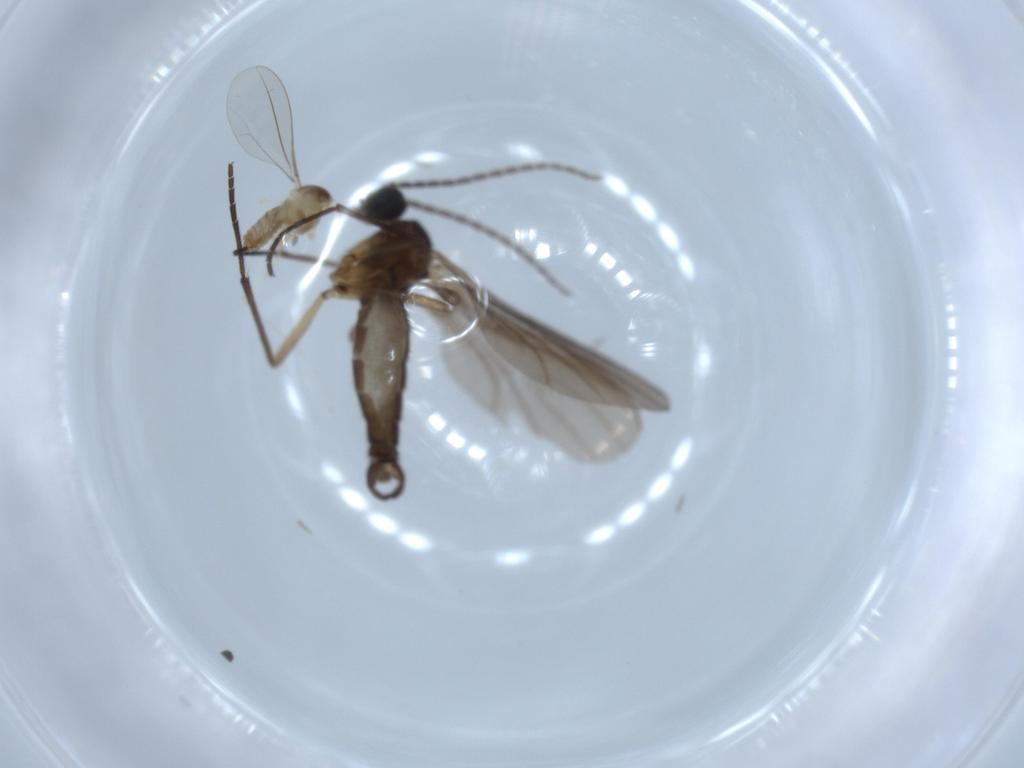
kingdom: Animalia
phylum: Arthropoda
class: Insecta
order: Diptera
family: Cecidomyiidae
